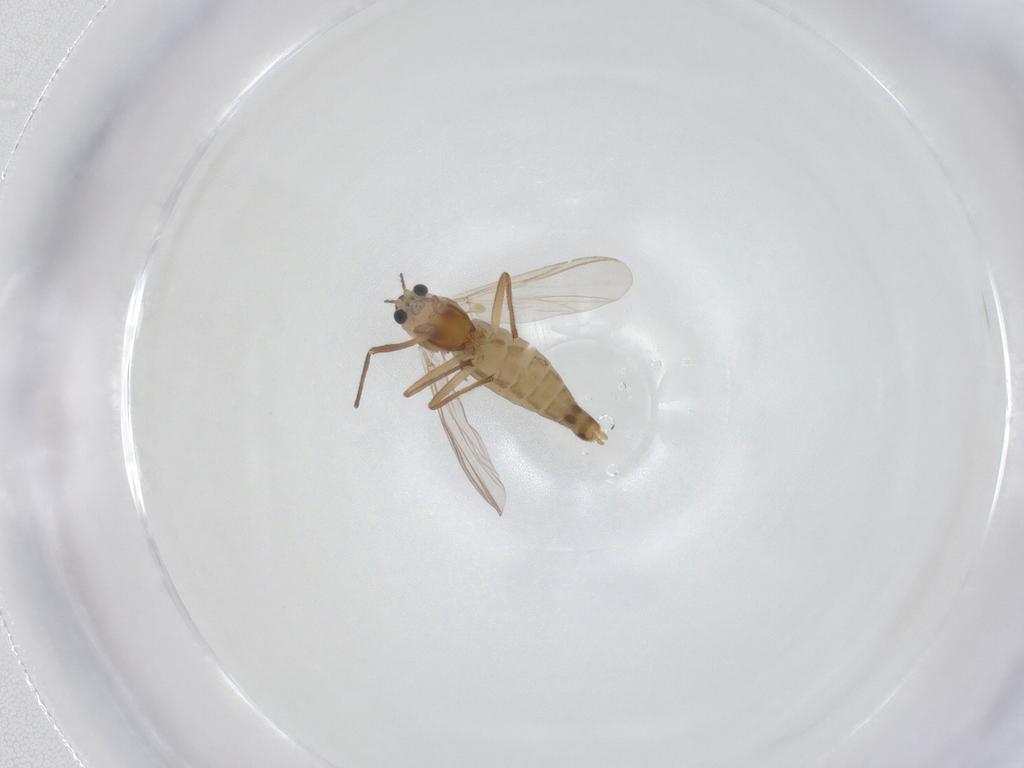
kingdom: Animalia
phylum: Arthropoda
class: Insecta
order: Diptera
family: Chironomidae
